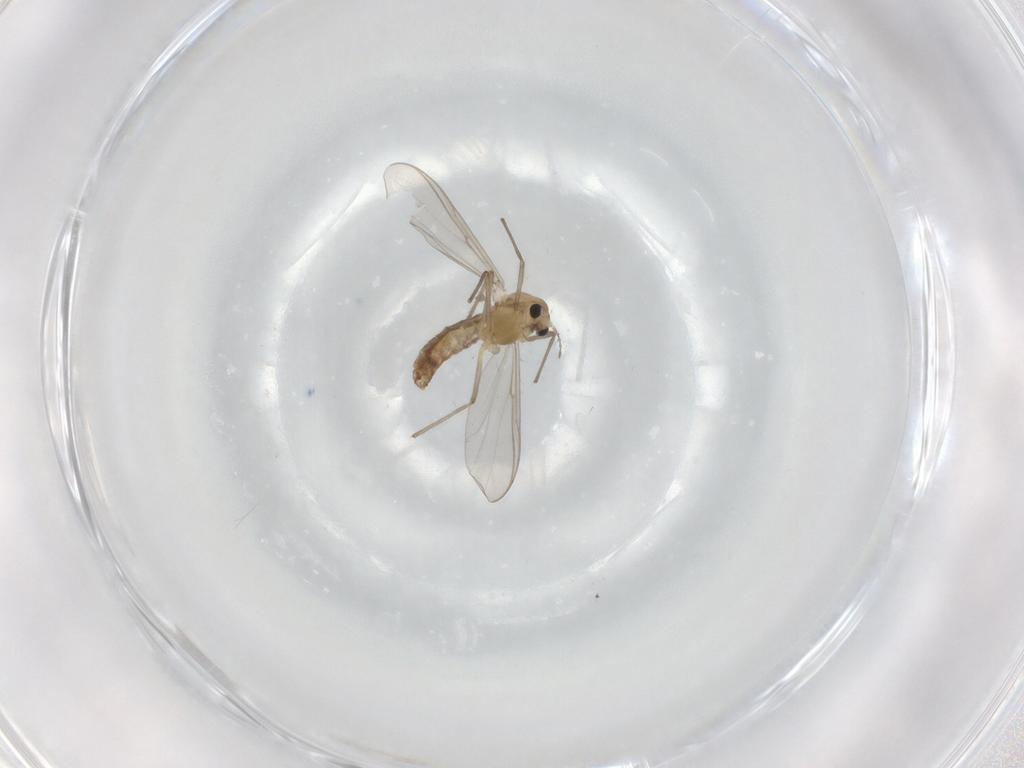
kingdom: Animalia
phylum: Arthropoda
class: Insecta
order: Diptera
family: Chironomidae
